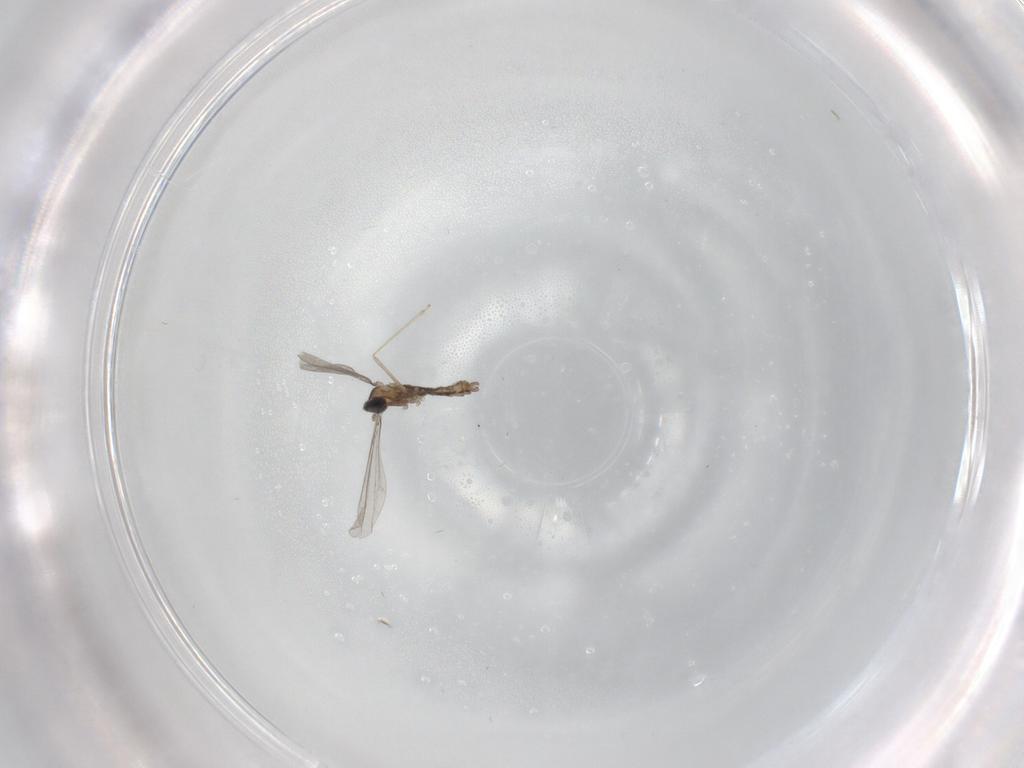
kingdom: Animalia
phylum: Arthropoda
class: Insecta
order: Diptera
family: Cecidomyiidae
